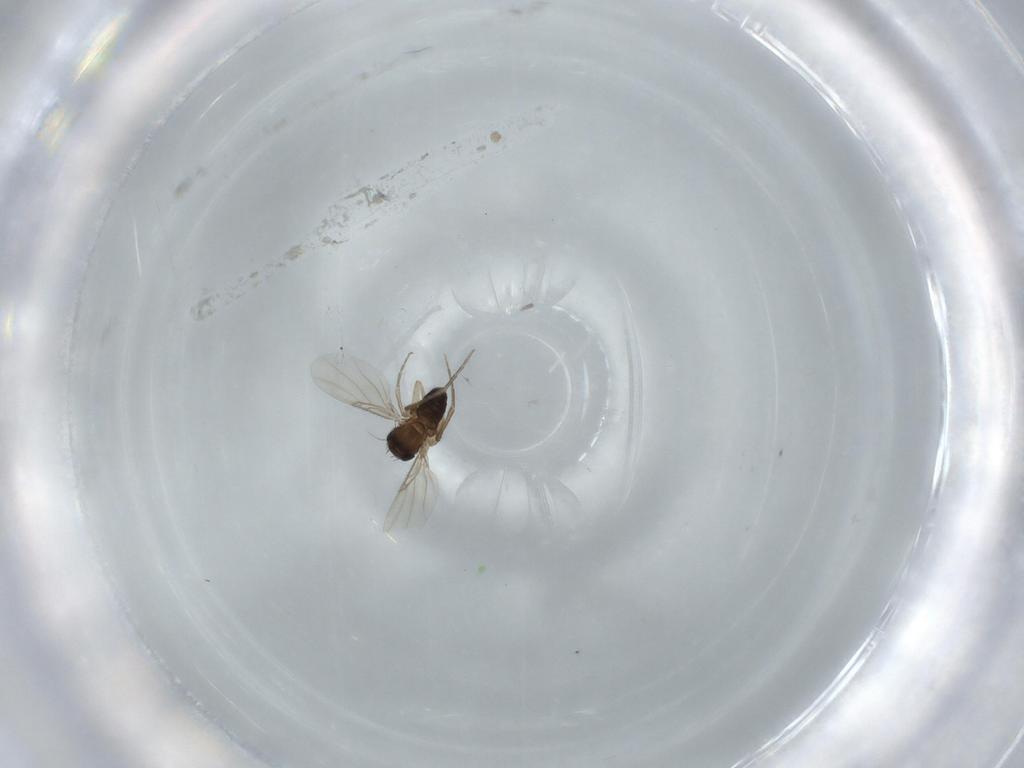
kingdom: Animalia
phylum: Arthropoda
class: Insecta
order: Diptera
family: Phoridae
